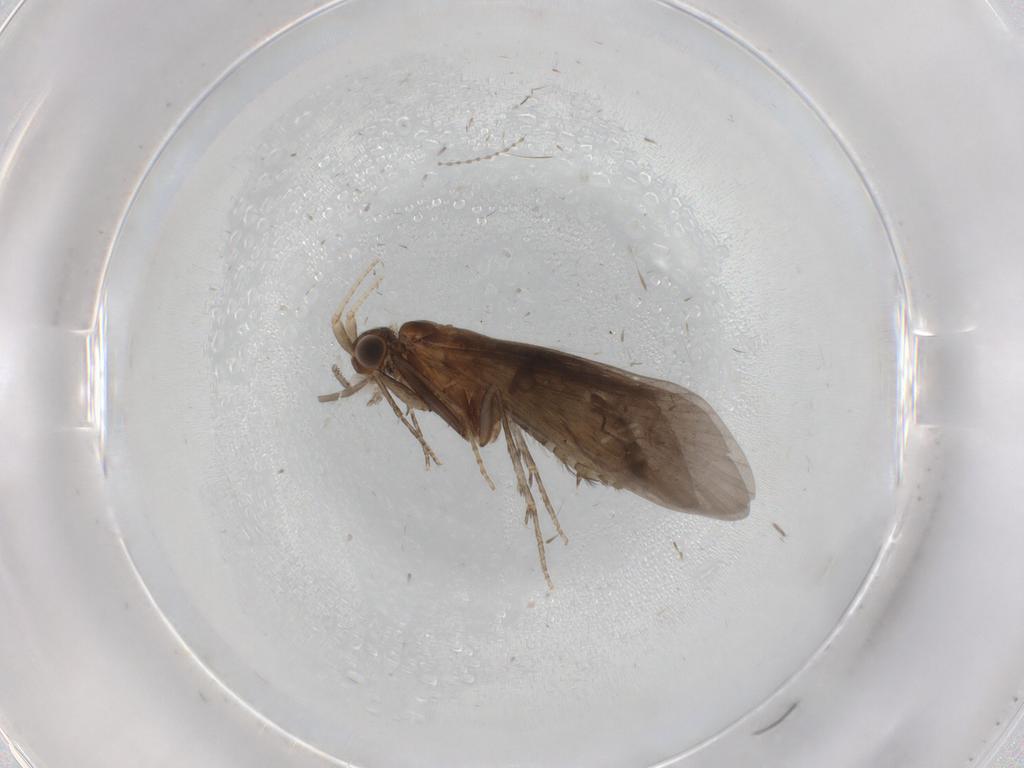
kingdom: Animalia
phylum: Arthropoda
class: Insecta
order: Trichoptera
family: Helicopsychidae
